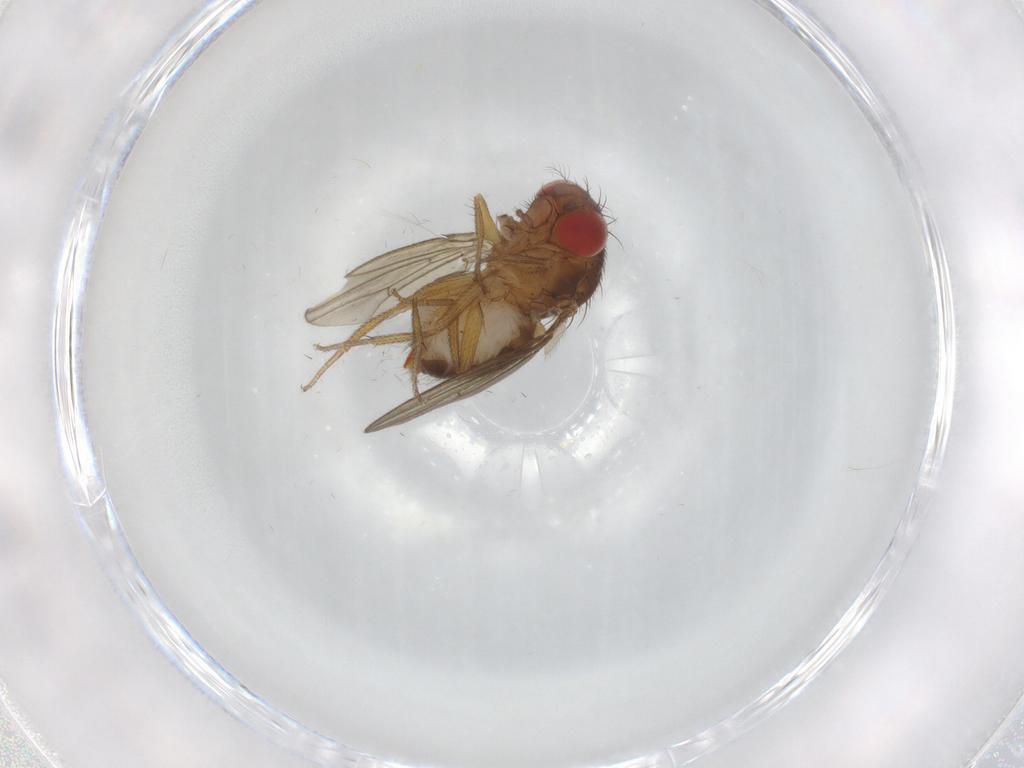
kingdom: Animalia
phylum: Arthropoda
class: Insecta
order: Diptera
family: Drosophilidae
